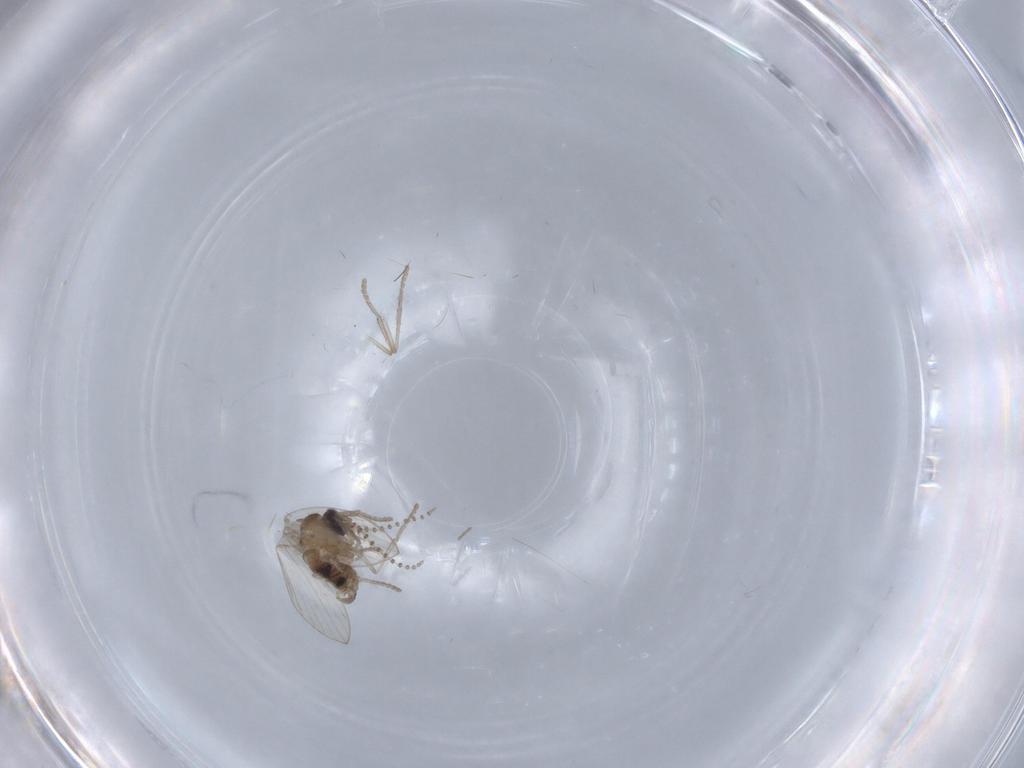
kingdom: Animalia
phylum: Arthropoda
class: Insecta
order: Diptera
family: Psychodidae
